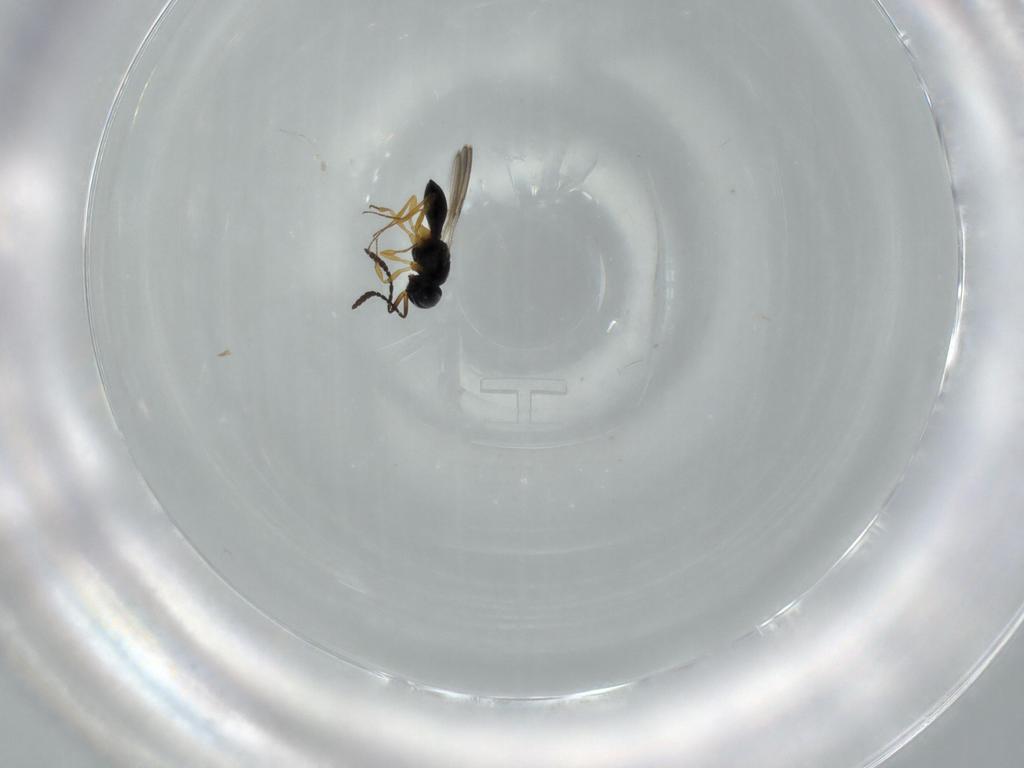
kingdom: Animalia
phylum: Arthropoda
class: Insecta
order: Hymenoptera
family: Scelionidae
